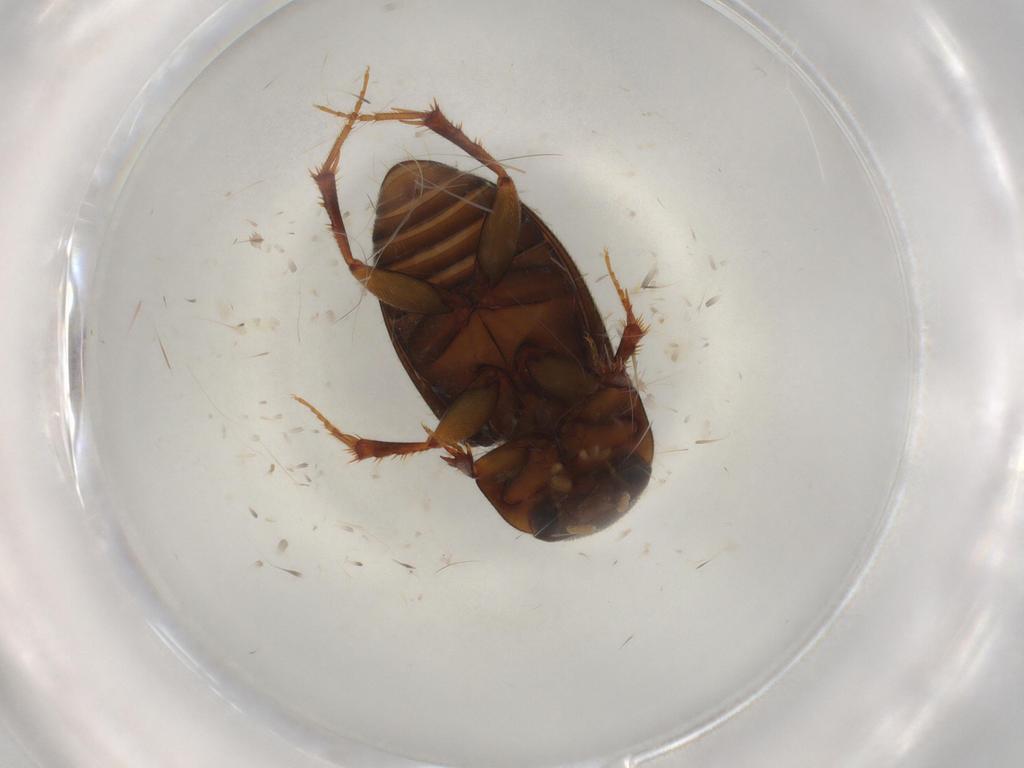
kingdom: Animalia
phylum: Arthropoda
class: Insecta
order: Coleoptera
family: Scarabaeidae
